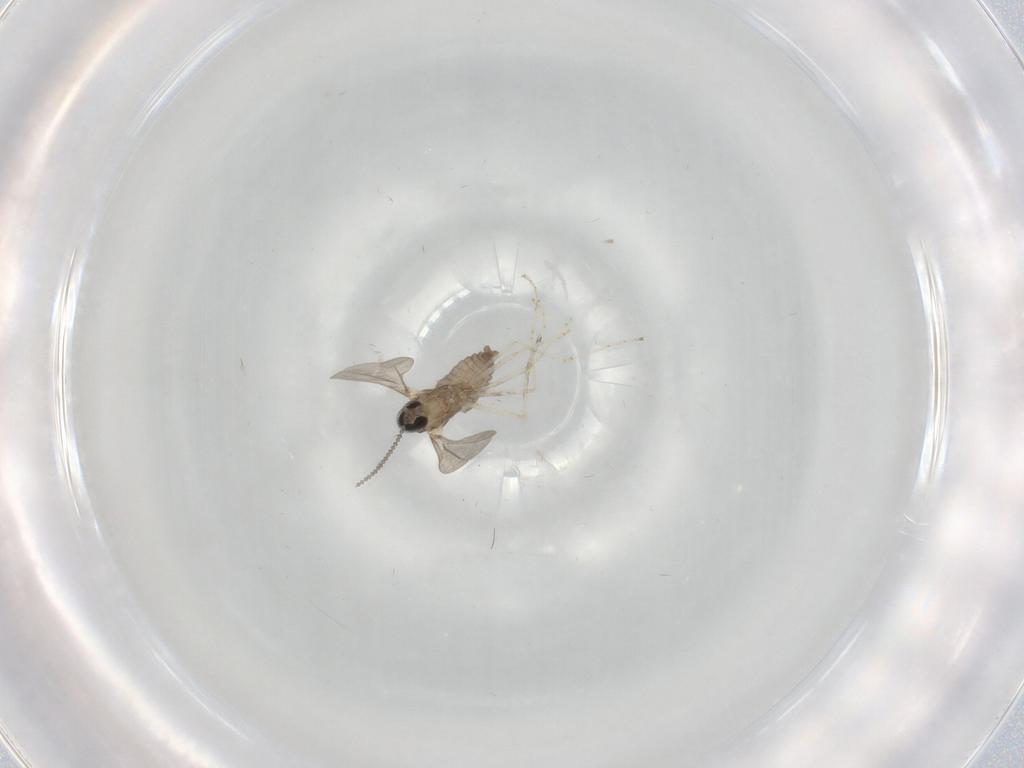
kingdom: Animalia
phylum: Arthropoda
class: Insecta
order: Diptera
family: Cecidomyiidae
